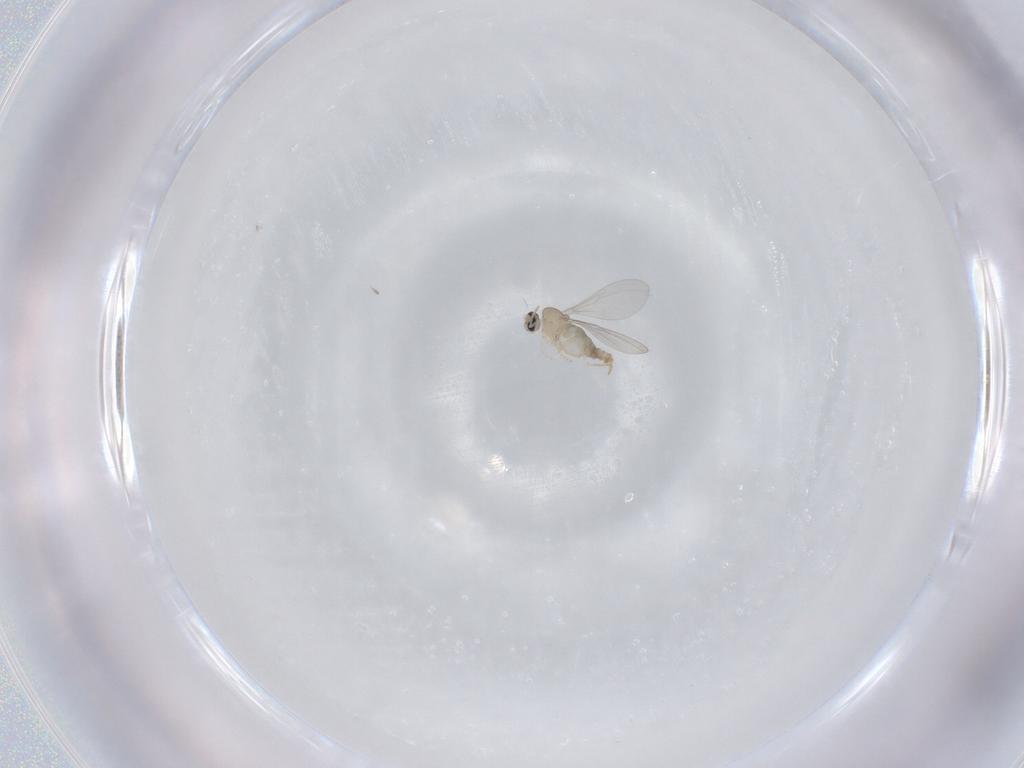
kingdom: Animalia
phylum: Arthropoda
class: Insecta
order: Diptera
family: Cecidomyiidae
